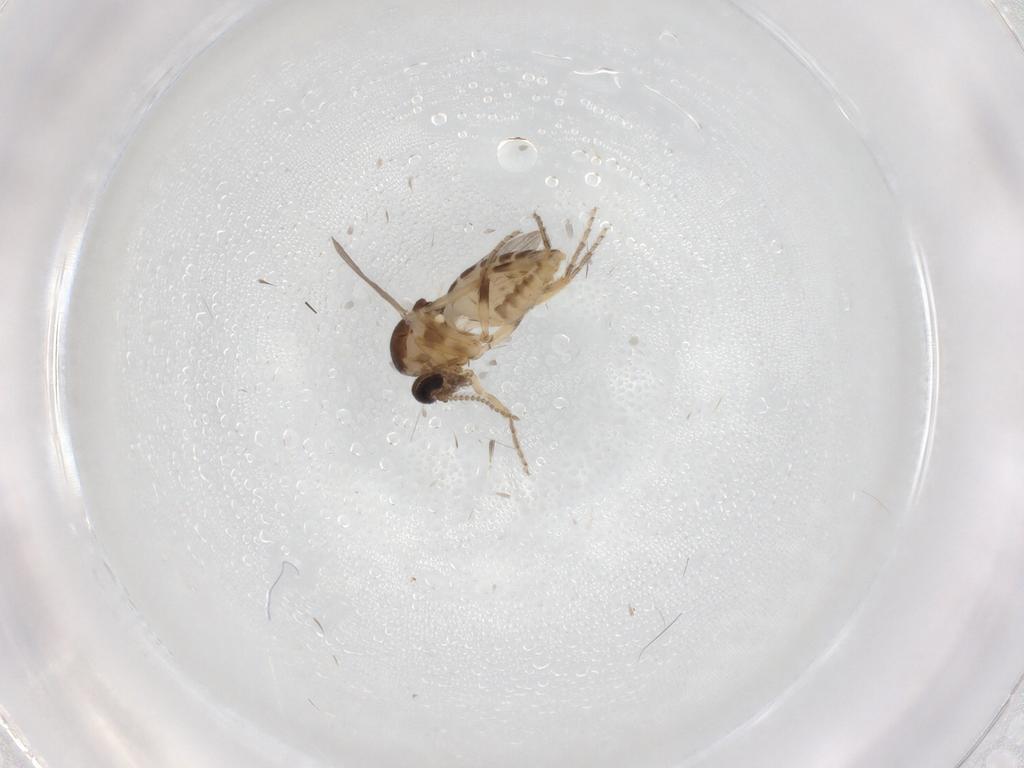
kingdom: Animalia
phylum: Arthropoda
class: Insecta
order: Diptera
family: Ceratopogonidae
